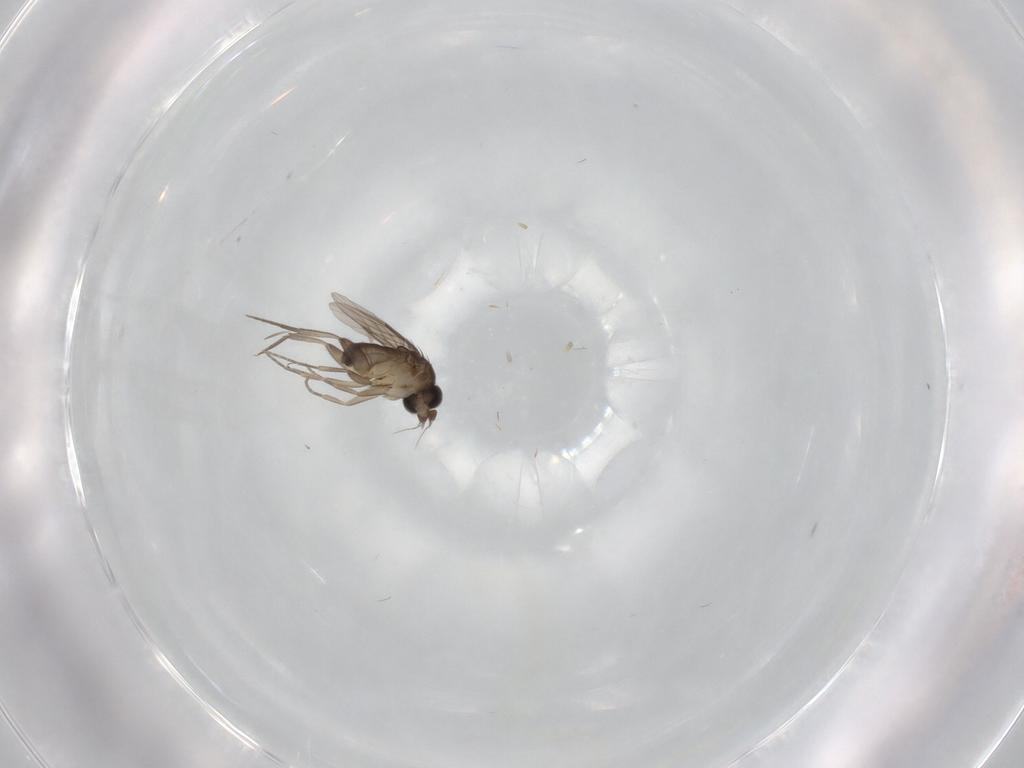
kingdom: Animalia
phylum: Arthropoda
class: Insecta
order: Diptera
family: Phoridae
